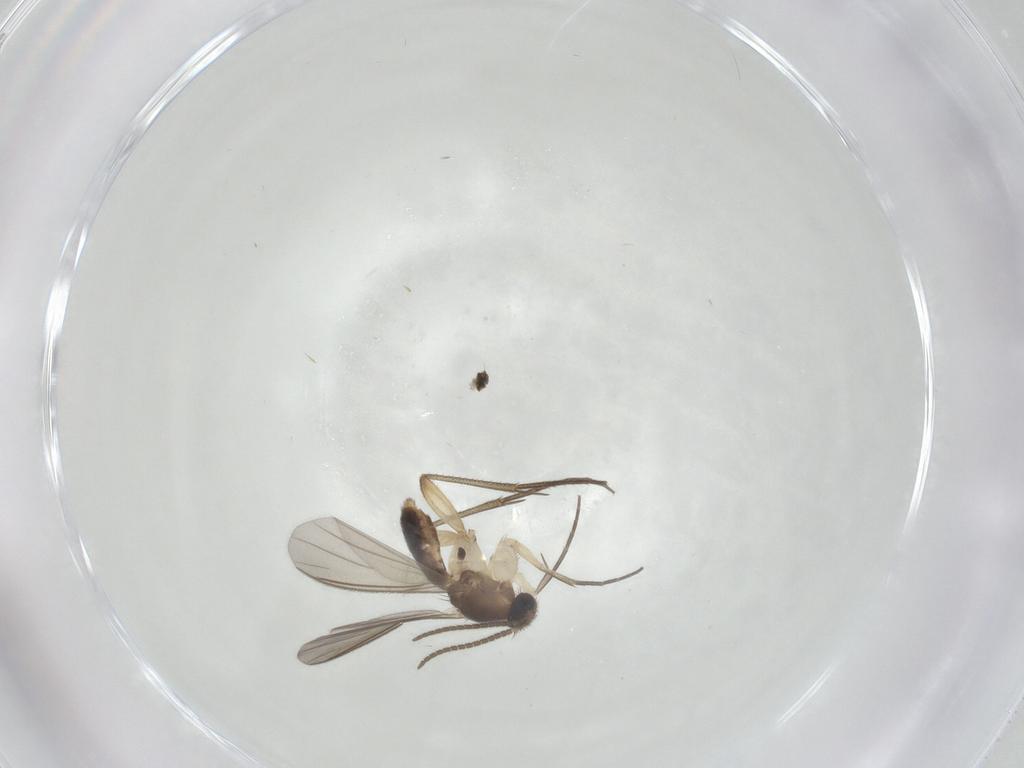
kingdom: Animalia
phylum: Arthropoda
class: Insecta
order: Diptera
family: Mycetophilidae
